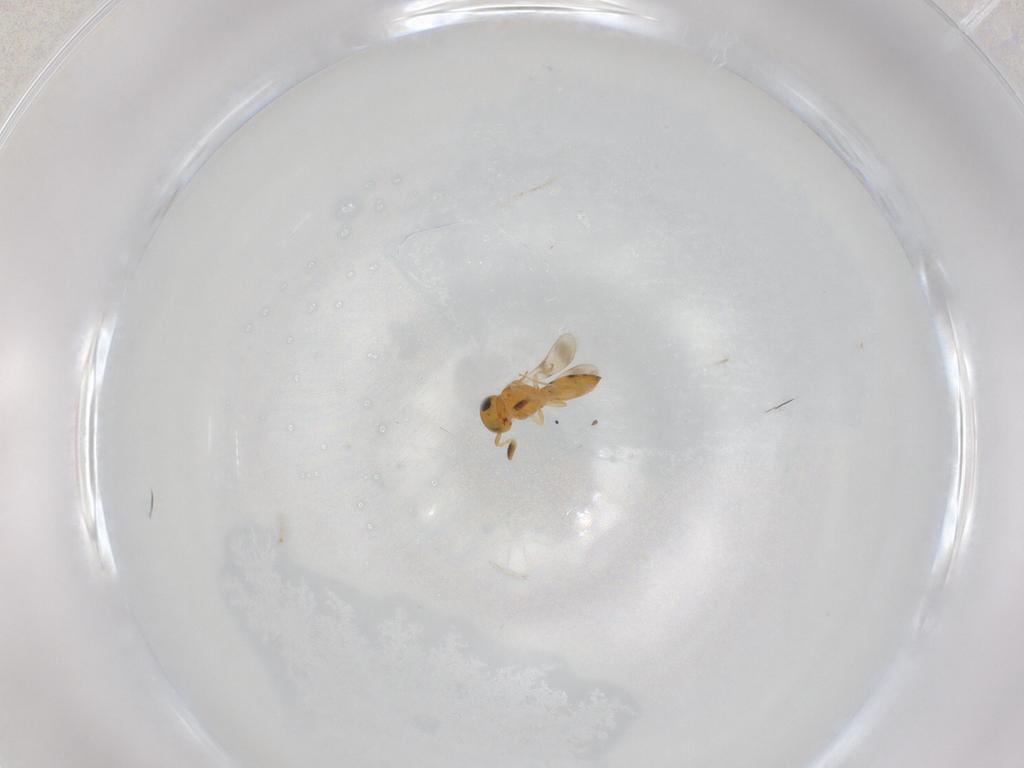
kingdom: Animalia
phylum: Arthropoda
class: Insecta
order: Hymenoptera
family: Scelionidae
